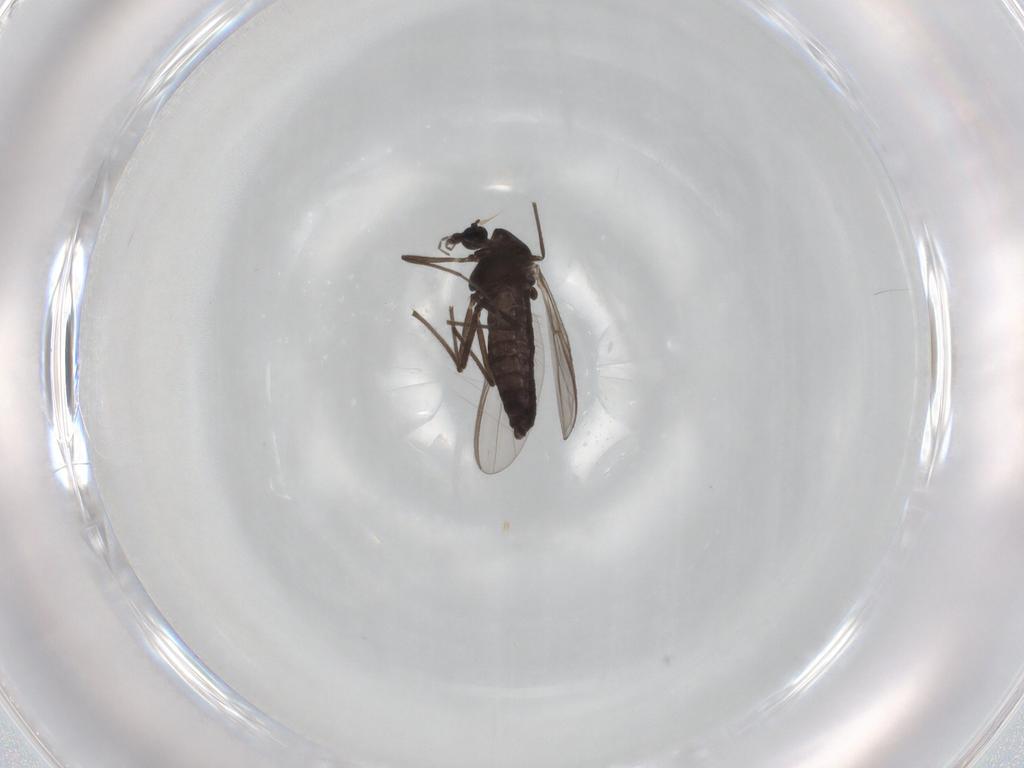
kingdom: Animalia
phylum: Arthropoda
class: Insecta
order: Diptera
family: Chironomidae
